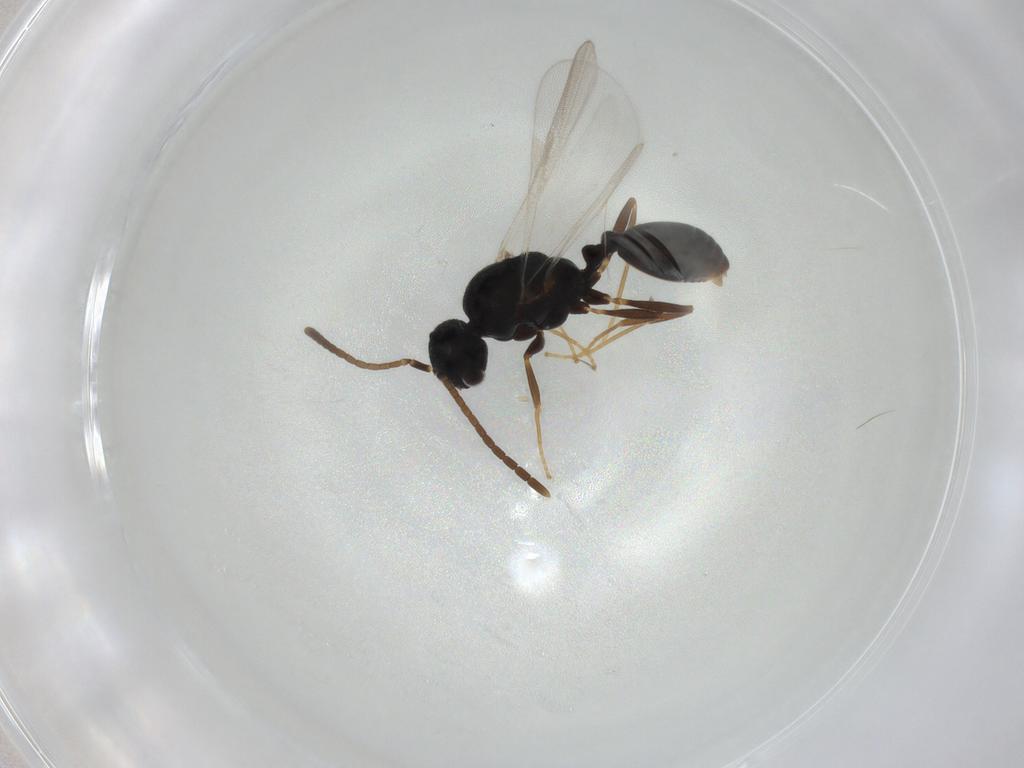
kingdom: Animalia
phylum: Arthropoda
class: Insecta
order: Hymenoptera
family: Formicidae
